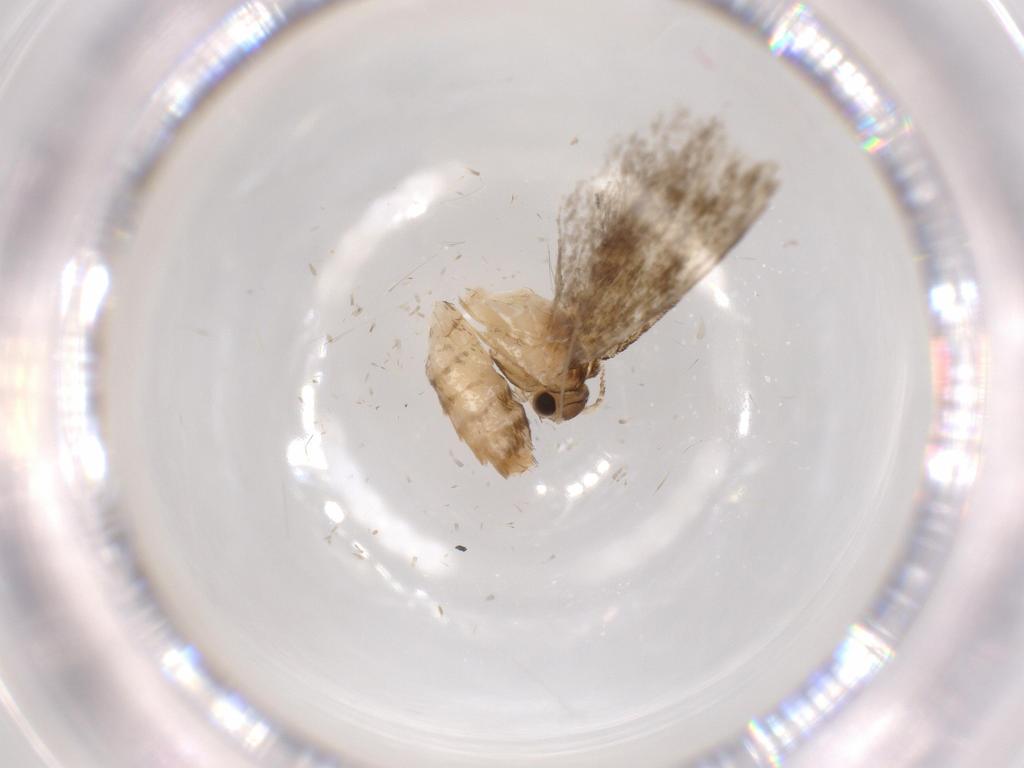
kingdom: Animalia
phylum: Arthropoda
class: Insecta
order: Lepidoptera
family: Tineidae
